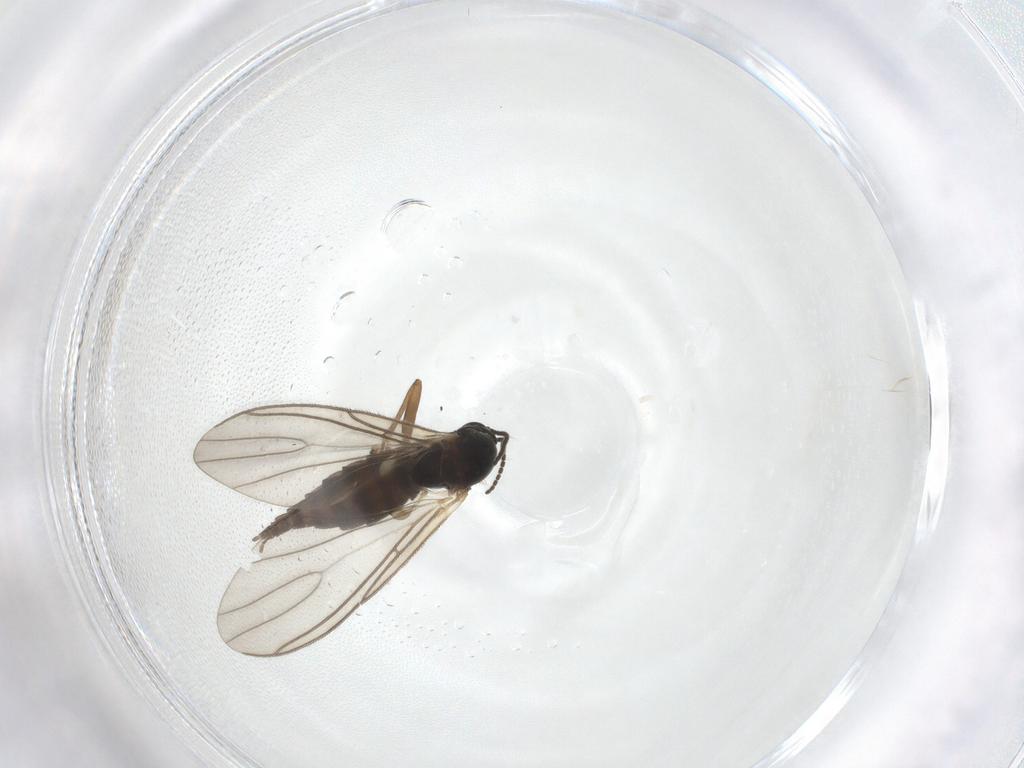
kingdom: Animalia
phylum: Arthropoda
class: Insecta
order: Diptera
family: Sciaridae
